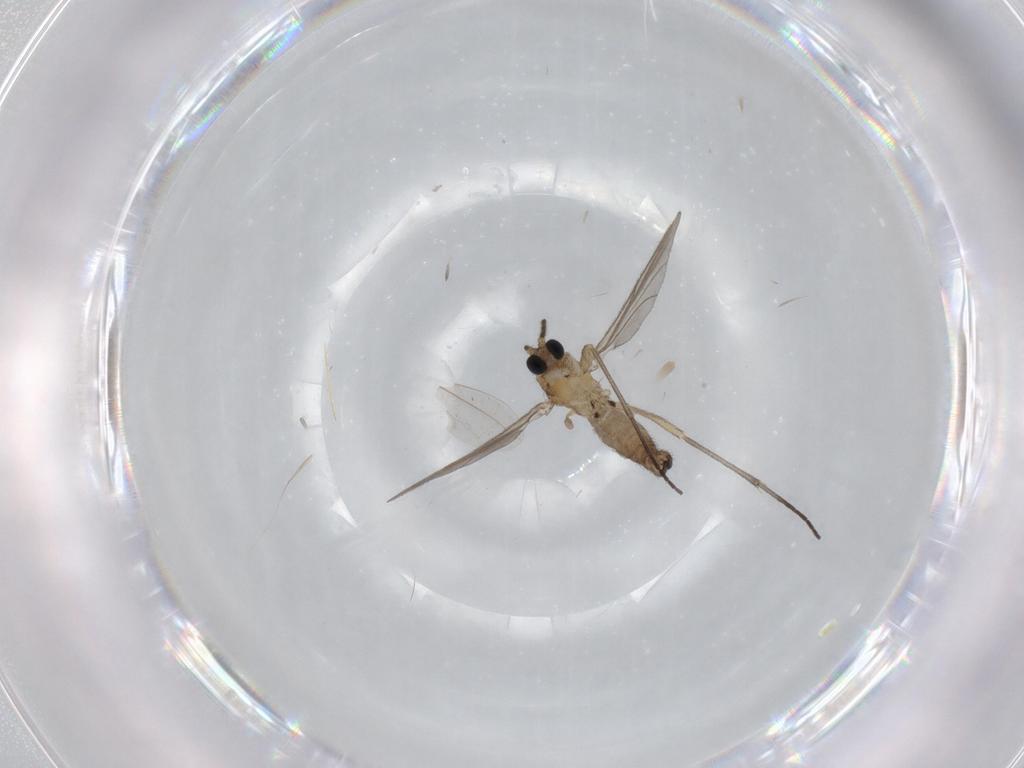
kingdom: Animalia
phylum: Arthropoda
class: Insecta
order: Diptera
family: Sciaridae
